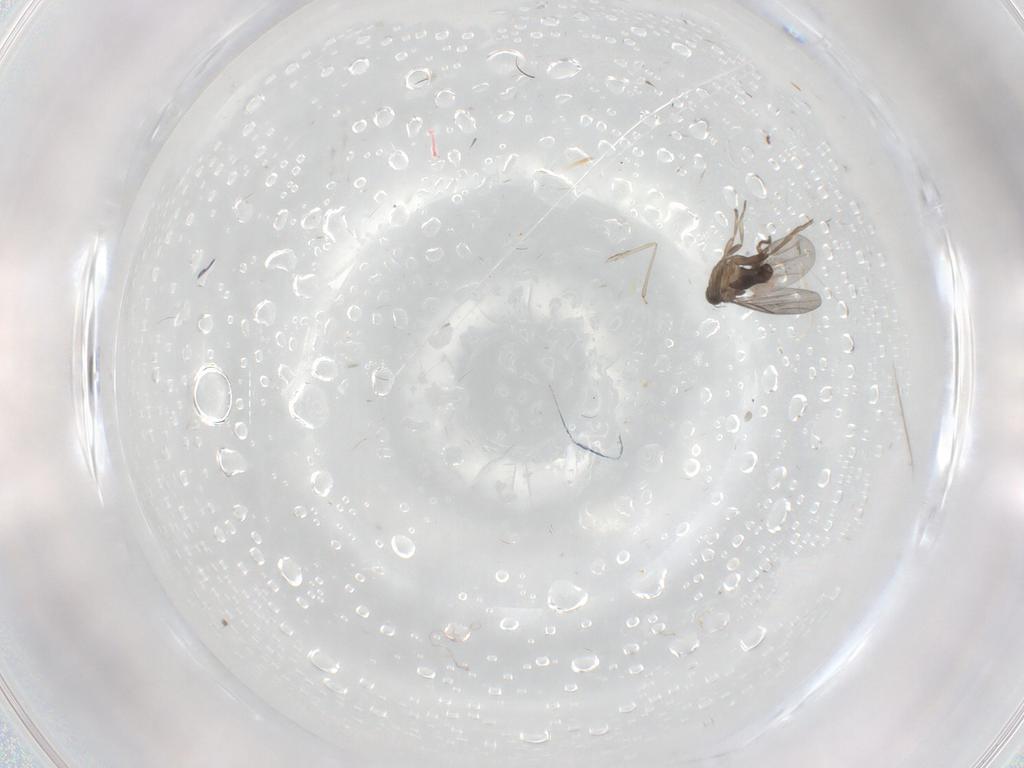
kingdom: Animalia
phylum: Arthropoda
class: Insecta
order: Diptera
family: Cecidomyiidae
